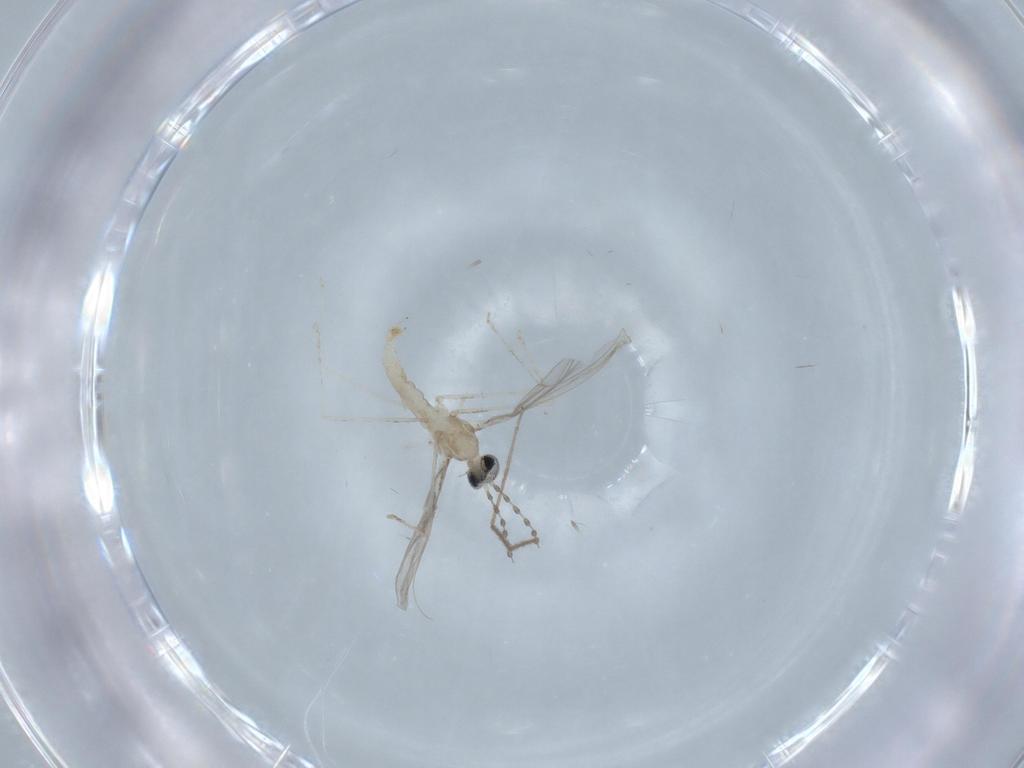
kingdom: Animalia
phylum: Arthropoda
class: Insecta
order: Diptera
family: Cecidomyiidae
